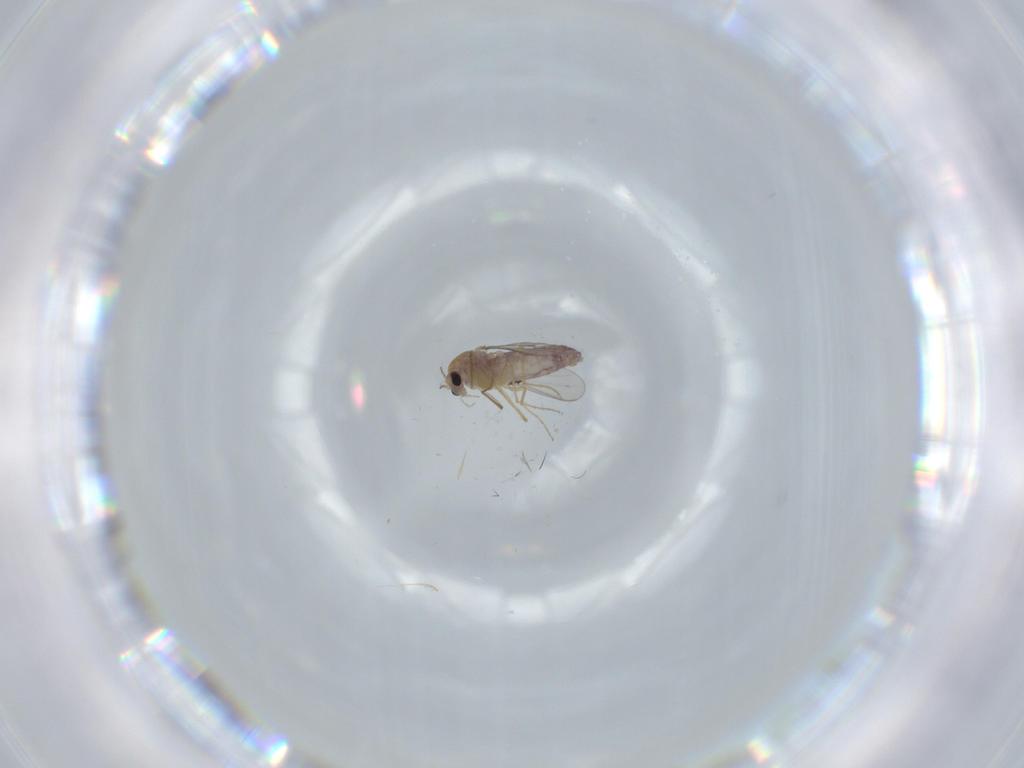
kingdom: Animalia
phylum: Arthropoda
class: Insecta
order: Diptera
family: Chironomidae
